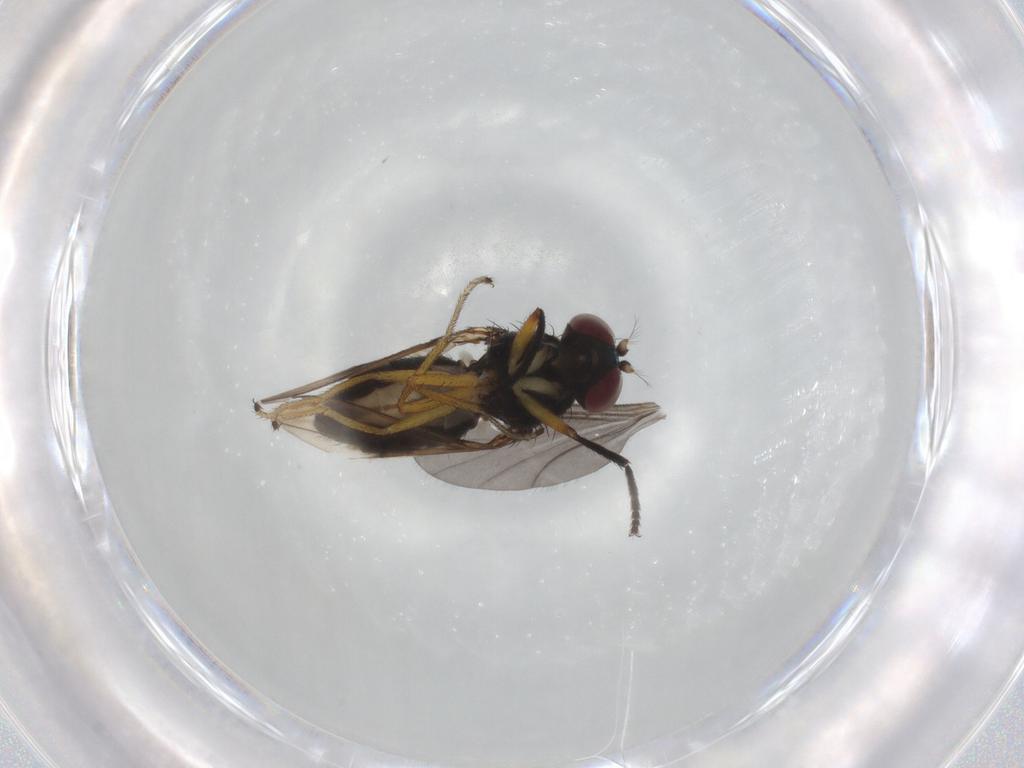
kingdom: Animalia
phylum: Arthropoda
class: Insecta
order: Diptera
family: Ephydridae
